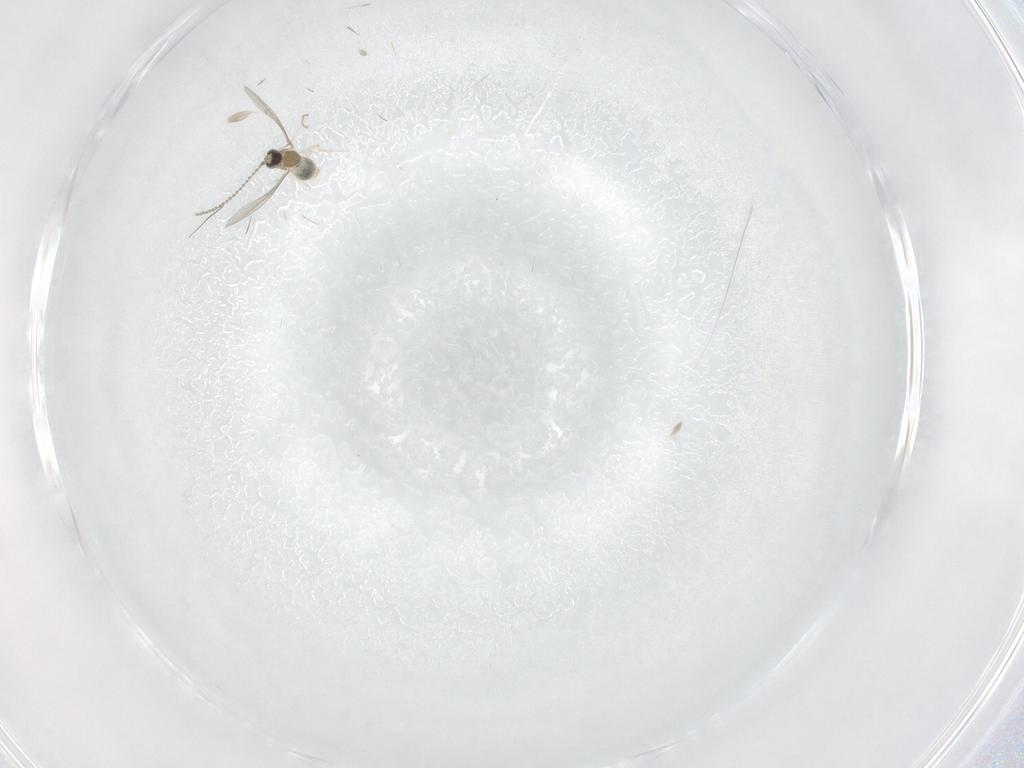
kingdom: Animalia
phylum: Arthropoda
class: Insecta
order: Diptera
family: Cecidomyiidae
